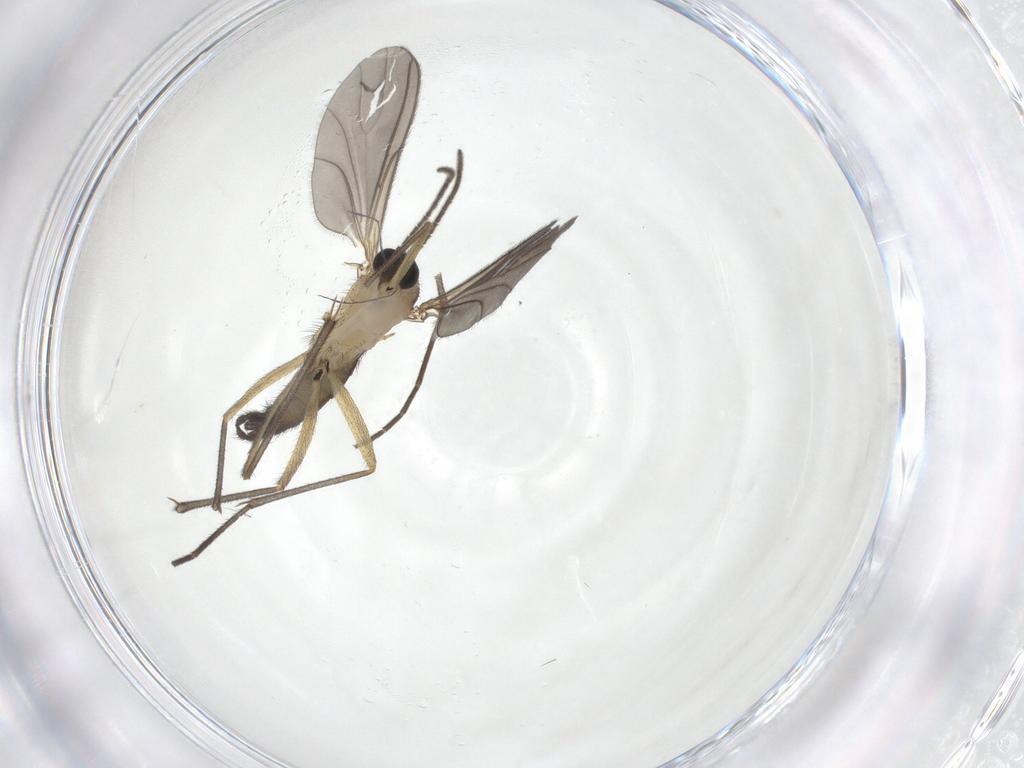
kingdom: Animalia
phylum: Arthropoda
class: Insecta
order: Diptera
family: Sciaridae
